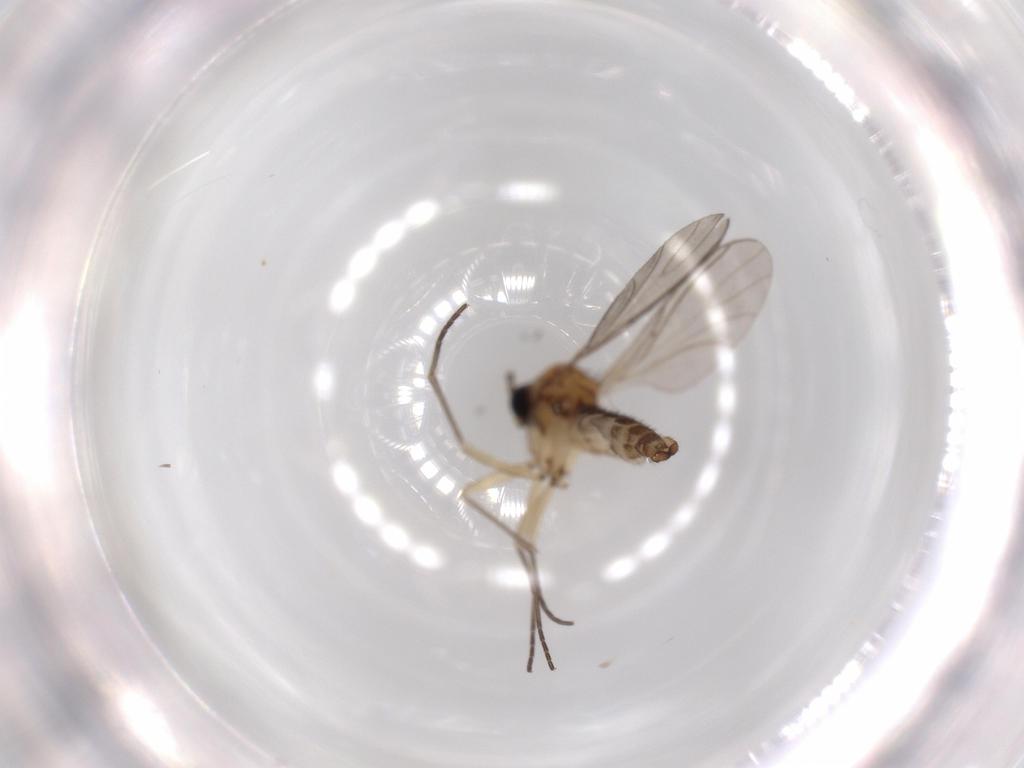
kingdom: Animalia
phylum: Arthropoda
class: Insecta
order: Diptera
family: Sciaridae
